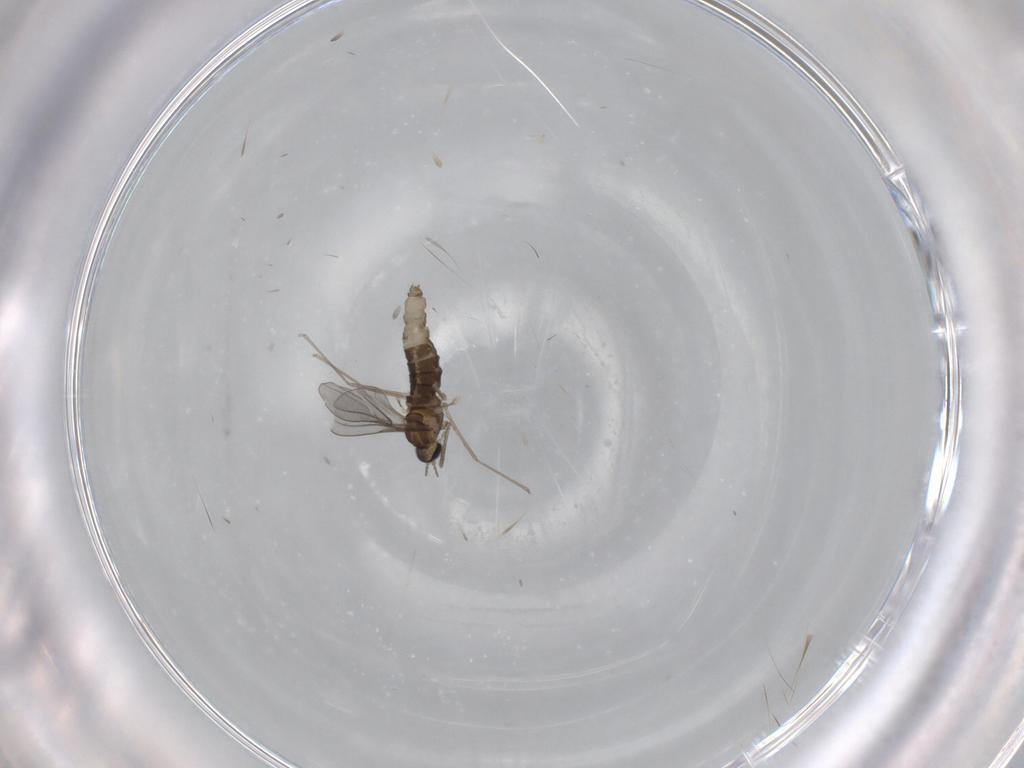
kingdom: Animalia
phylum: Arthropoda
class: Insecta
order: Diptera
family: Cecidomyiidae
